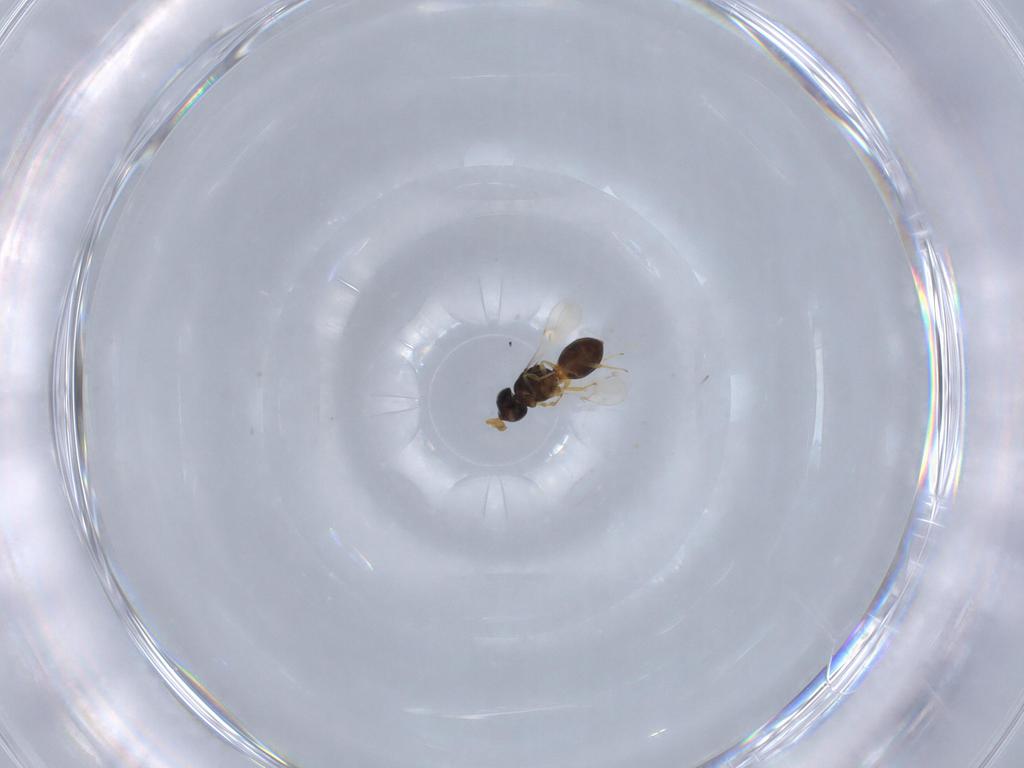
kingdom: Animalia
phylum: Arthropoda
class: Insecta
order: Hymenoptera
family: Scelionidae
